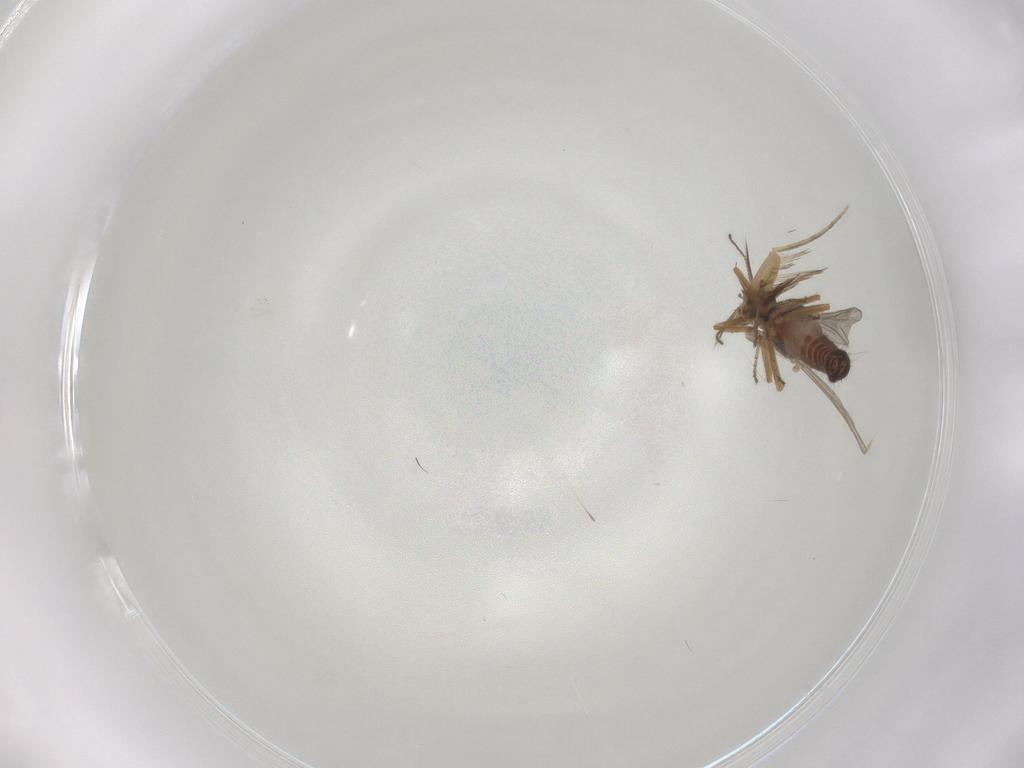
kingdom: Animalia
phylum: Arthropoda
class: Insecta
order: Diptera
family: Ceratopogonidae
